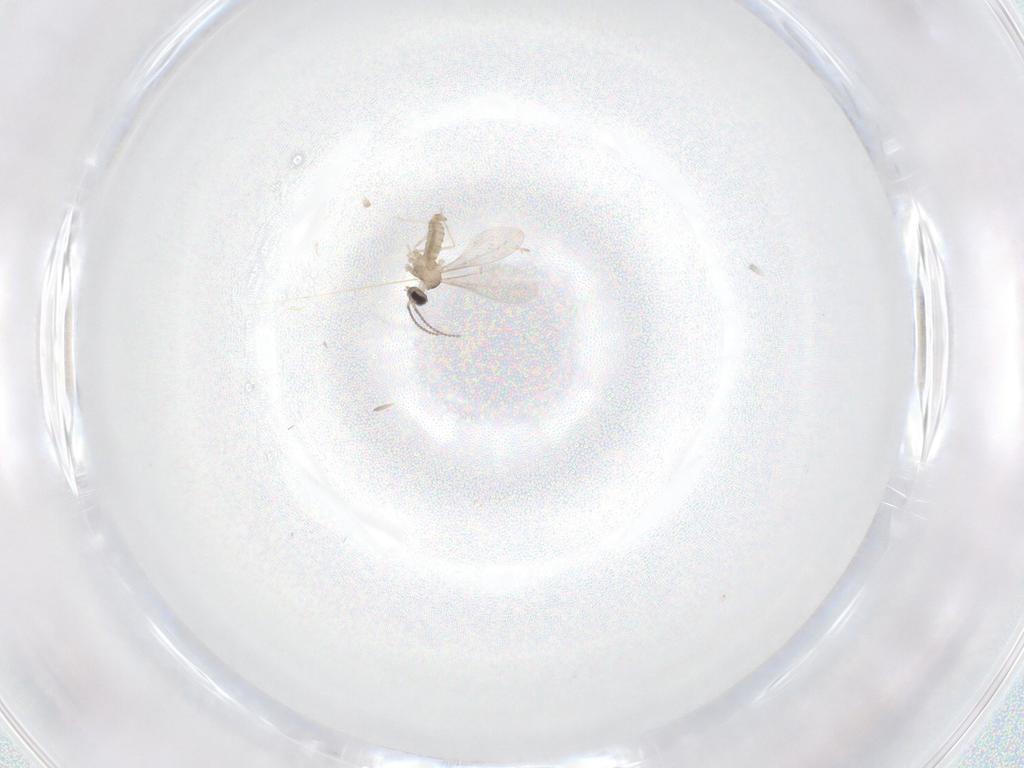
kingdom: Animalia
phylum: Arthropoda
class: Insecta
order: Diptera
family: Cecidomyiidae
